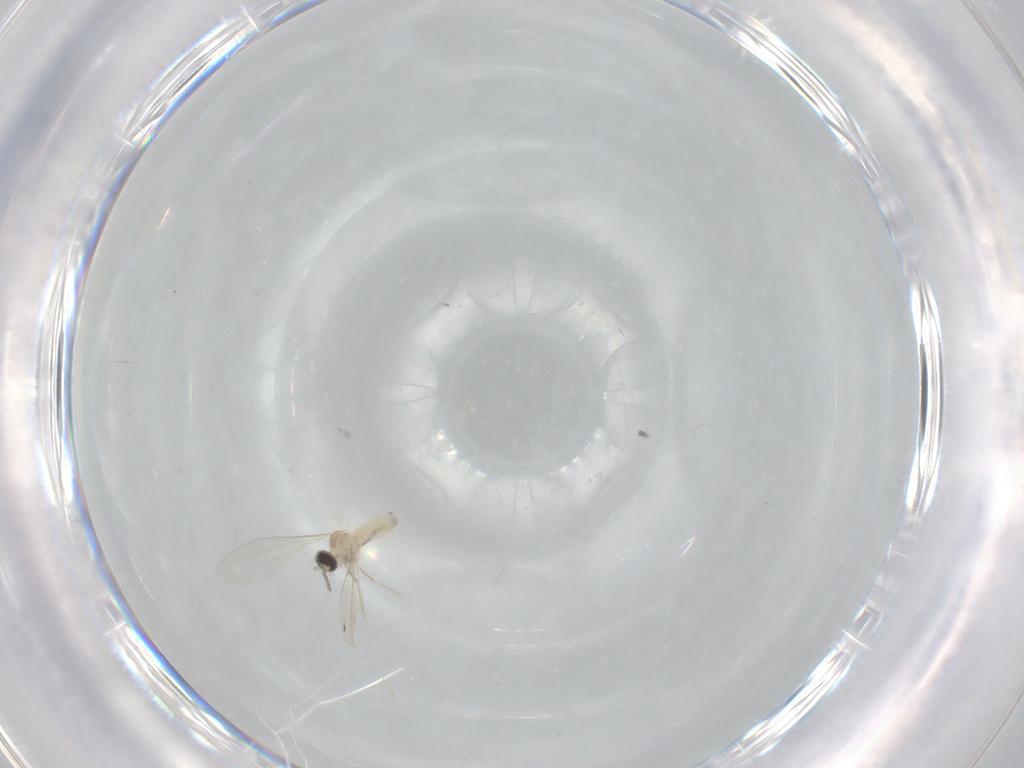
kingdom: Animalia
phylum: Arthropoda
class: Insecta
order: Diptera
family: Cecidomyiidae
